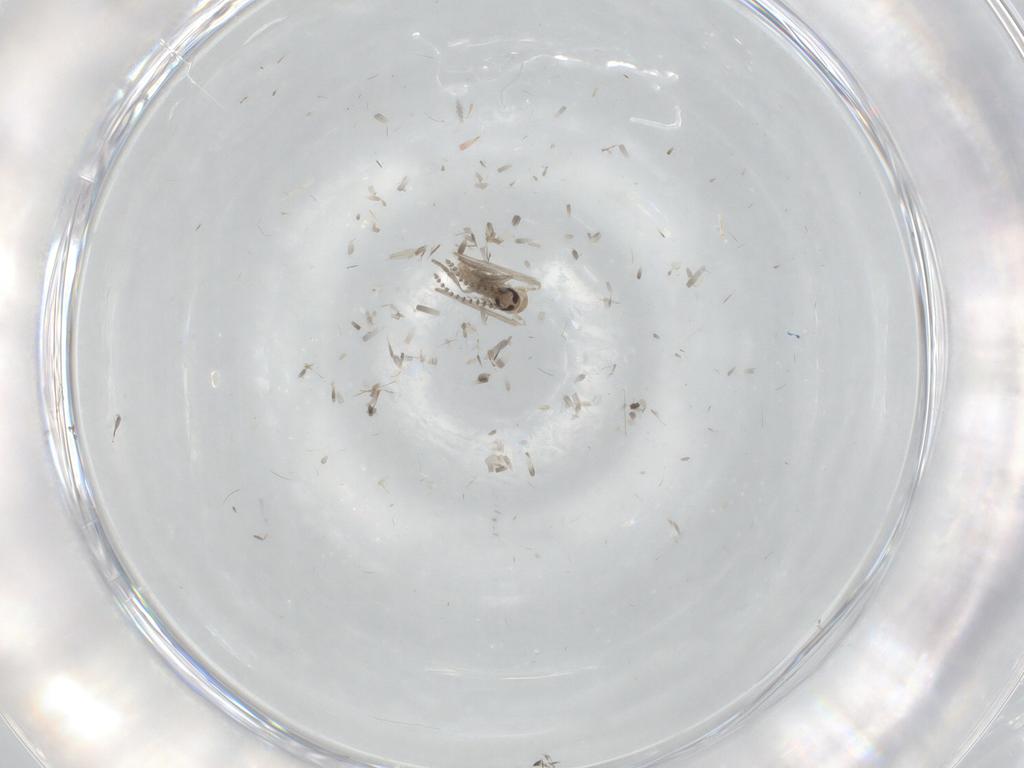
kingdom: Animalia
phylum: Arthropoda
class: Insecta
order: Diptera
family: Psychodidae
